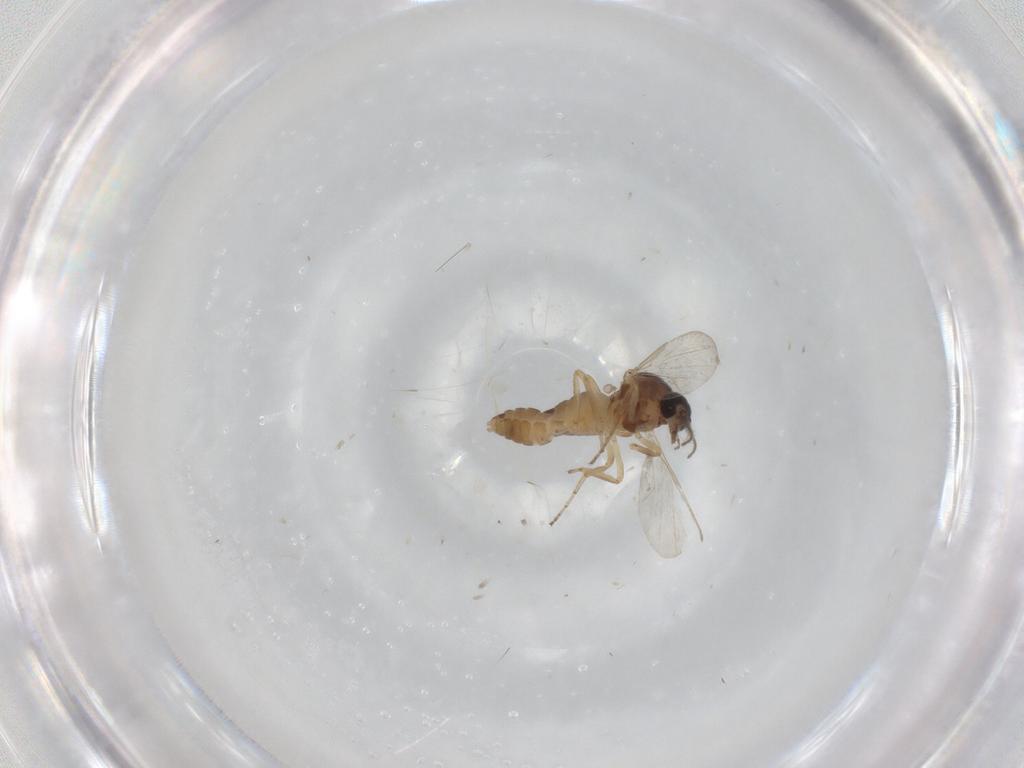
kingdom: Animalia
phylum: Arthropoda
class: Insecta
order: Diptera
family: Ceratopogonidae
